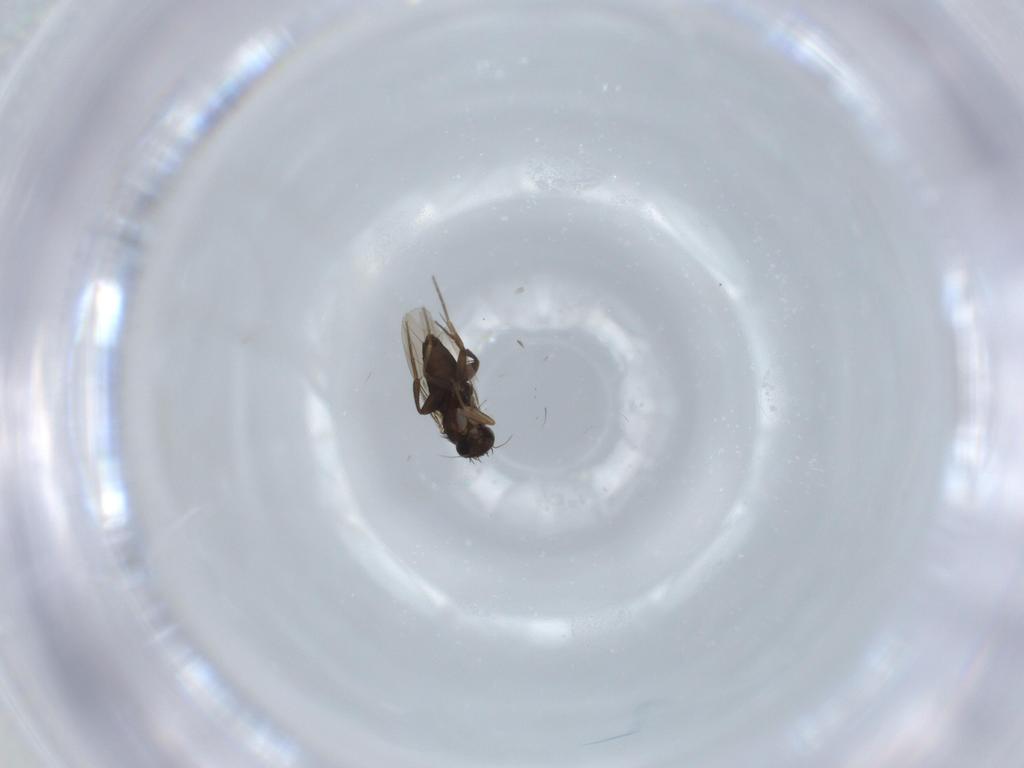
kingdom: Animalia
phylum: Arthropoda
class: Insecta
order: Diptera
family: Phoridae
